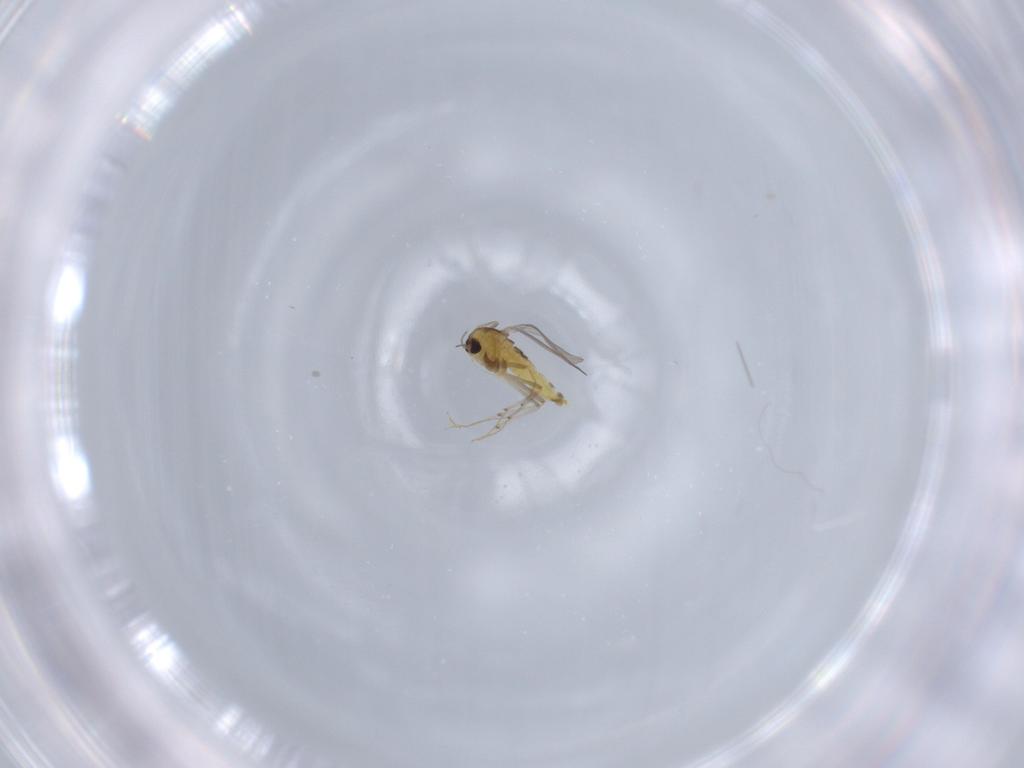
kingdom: Animalia
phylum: Arthropoda
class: Insecta
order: Diptera
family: Chironomidae
